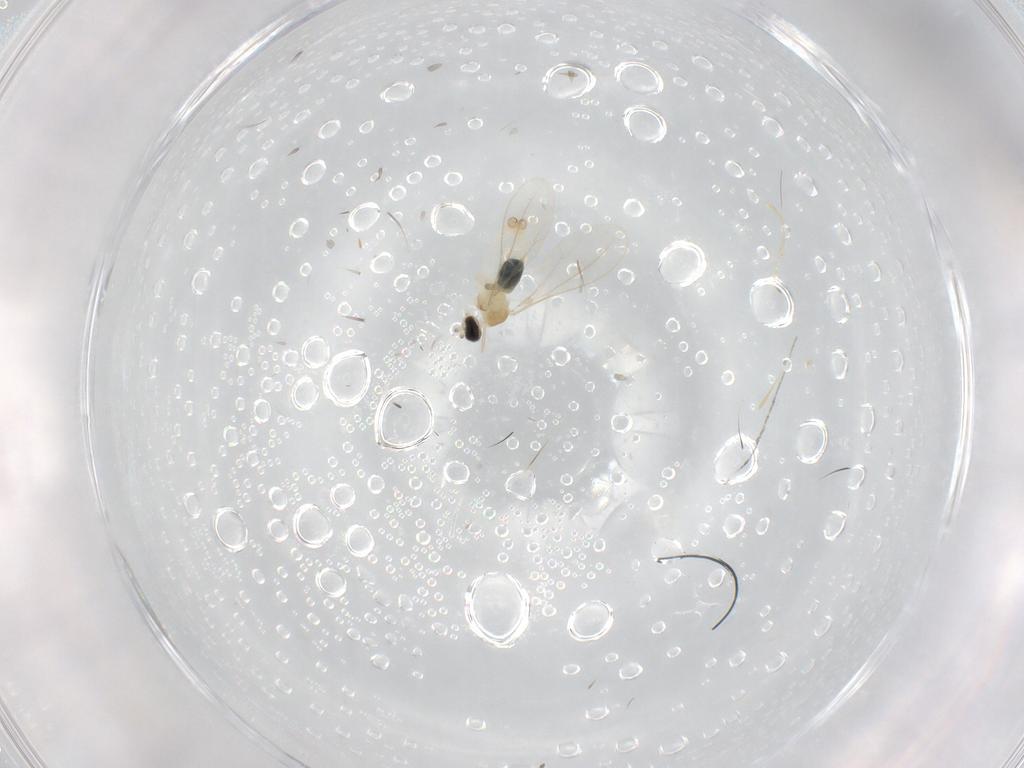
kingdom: Animalia
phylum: Arthropoda
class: Insecta
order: Diptera
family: Cecidomyiidae
